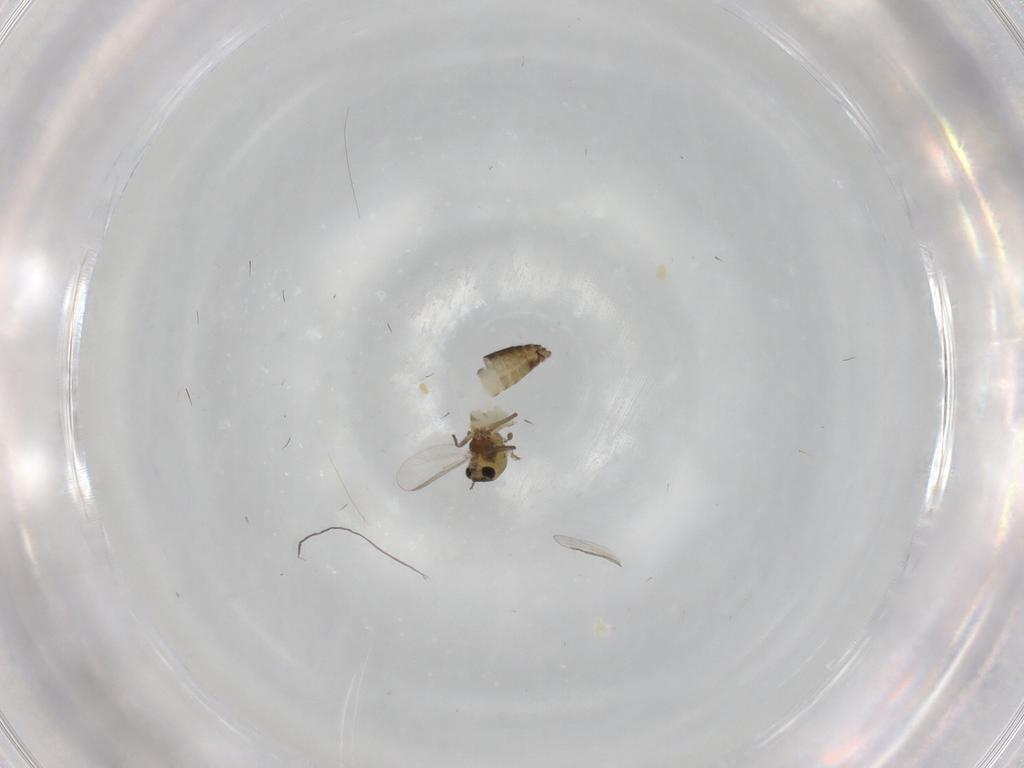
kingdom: Animalia
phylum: Arthropoda
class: Insecta
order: Diptera
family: Chironomidae
